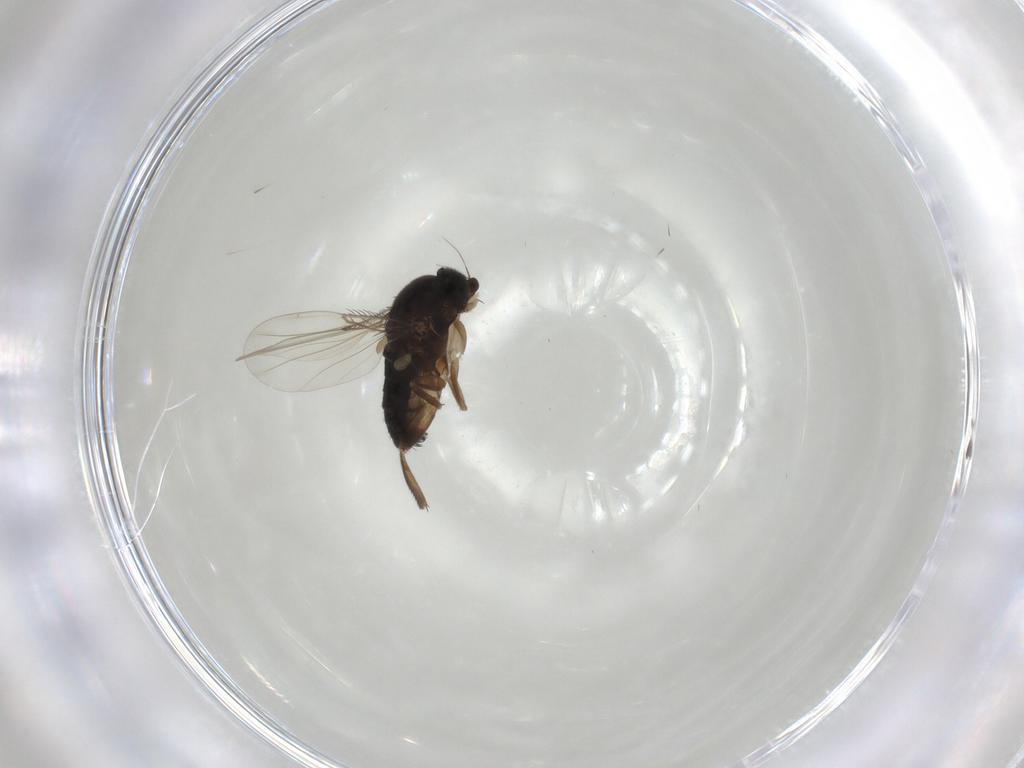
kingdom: Animalia
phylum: Arthropoda
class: Insecta
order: Diptera
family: Phoridae
